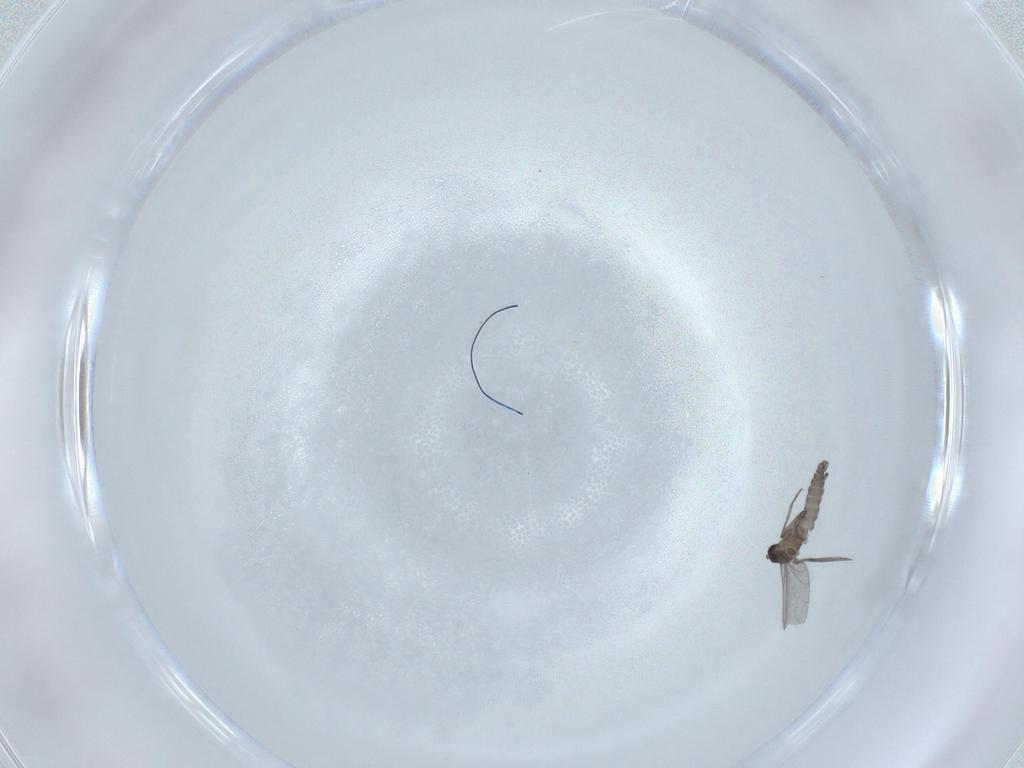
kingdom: Animalia
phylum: Arthropoda
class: Insecta
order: Diptera
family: Sciaridae
